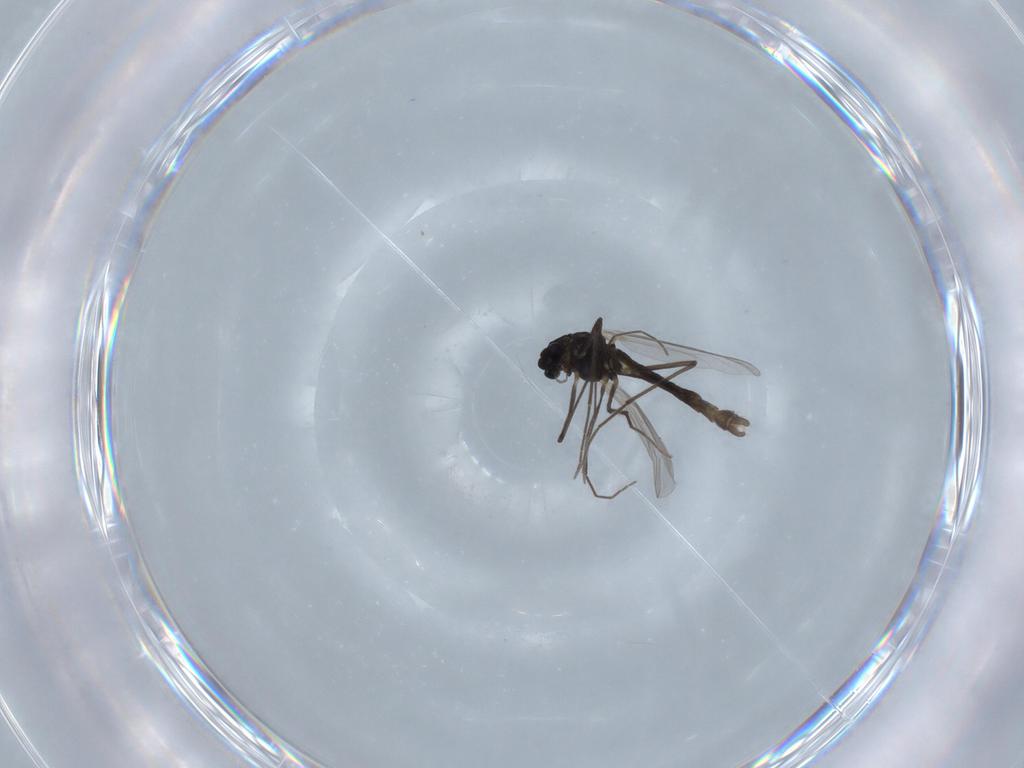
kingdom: Animalia
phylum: Arthropoda
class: Insecta
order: Diptera
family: Chironomidae
